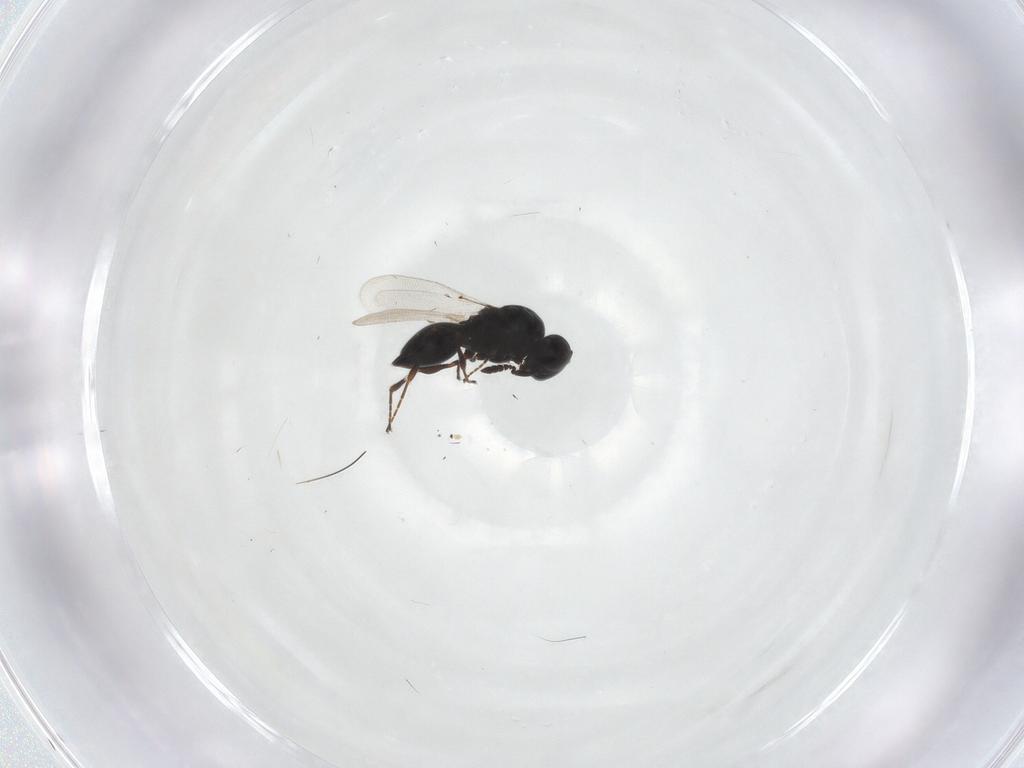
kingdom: Animalia
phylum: Arthropoda
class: Insecta
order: Hymenoptera
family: Platygastridae
